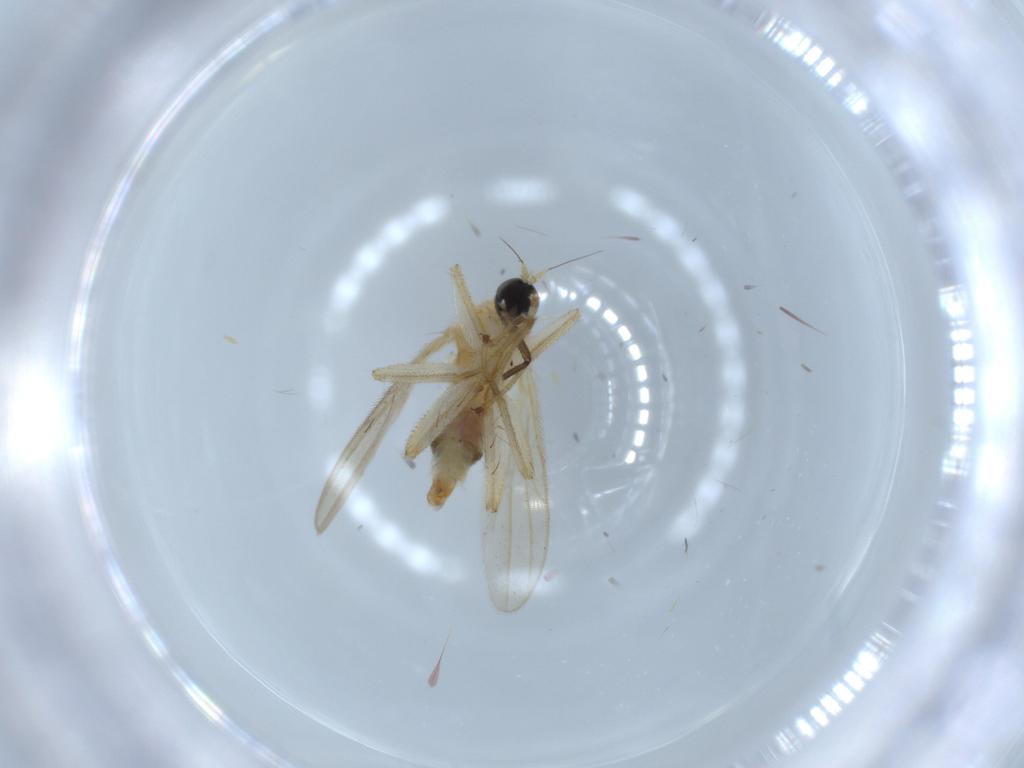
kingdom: Animalia
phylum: Arthropoda
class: Insecta
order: Diptera
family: Hybotidae
